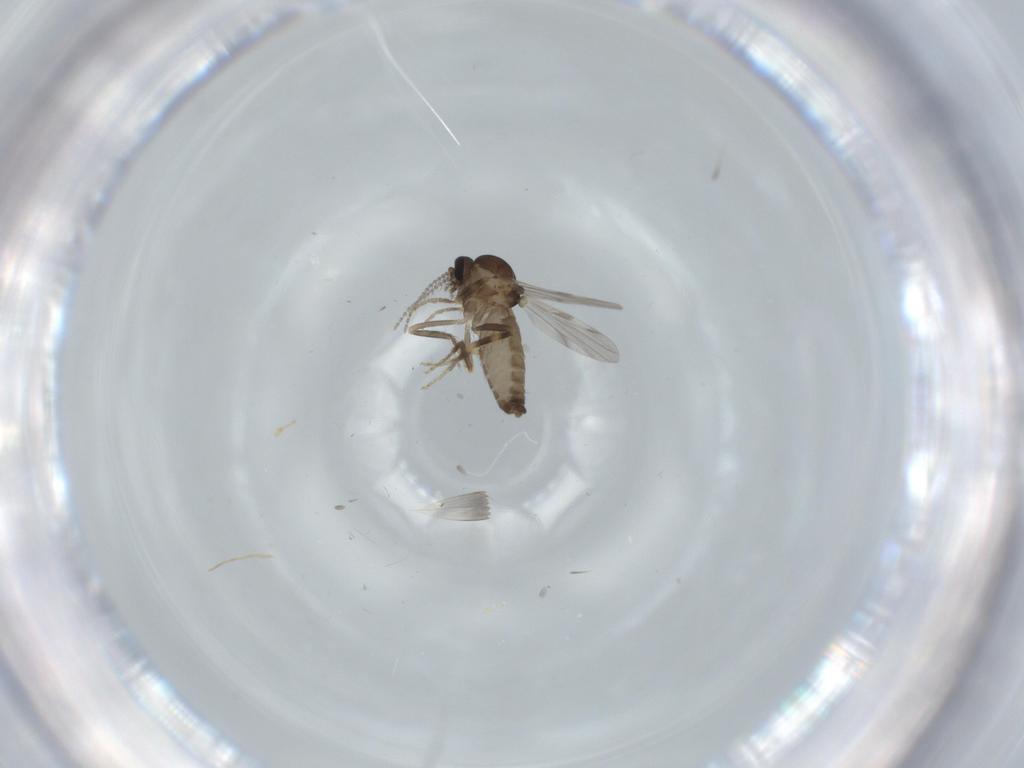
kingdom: Animalia
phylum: Arthropoda
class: Insecta
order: Diptera
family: Ceratopogonidae
